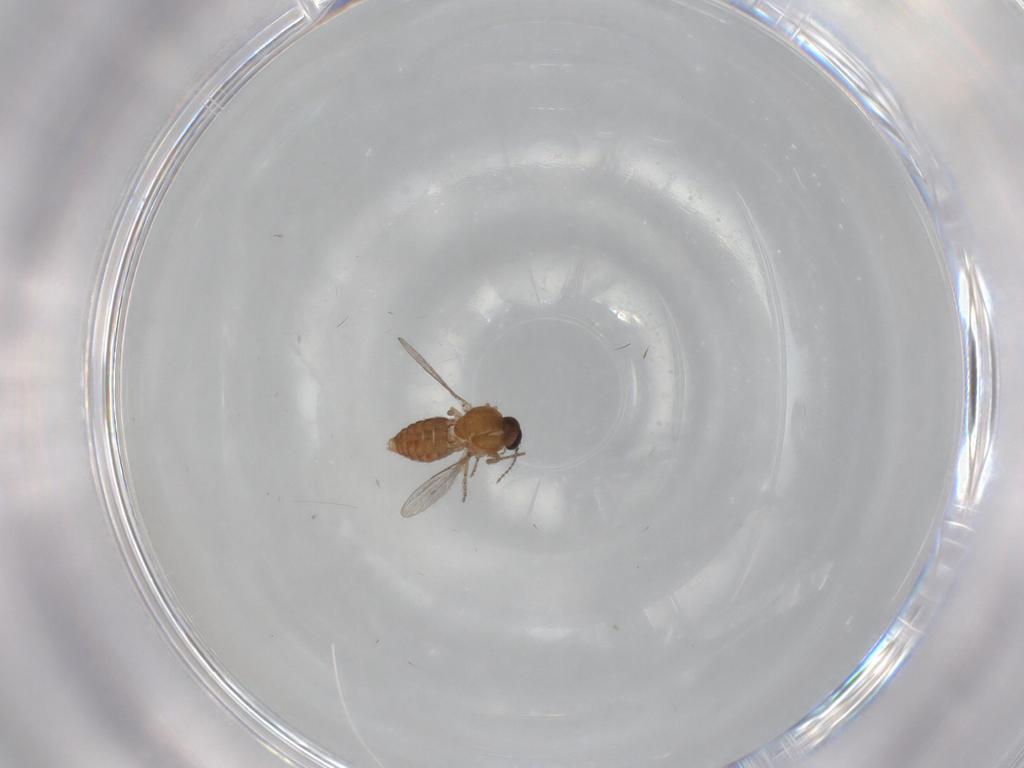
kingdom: Animalia
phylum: Arthropoda
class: Insecta
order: Diptera
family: Ceratopogonidae
